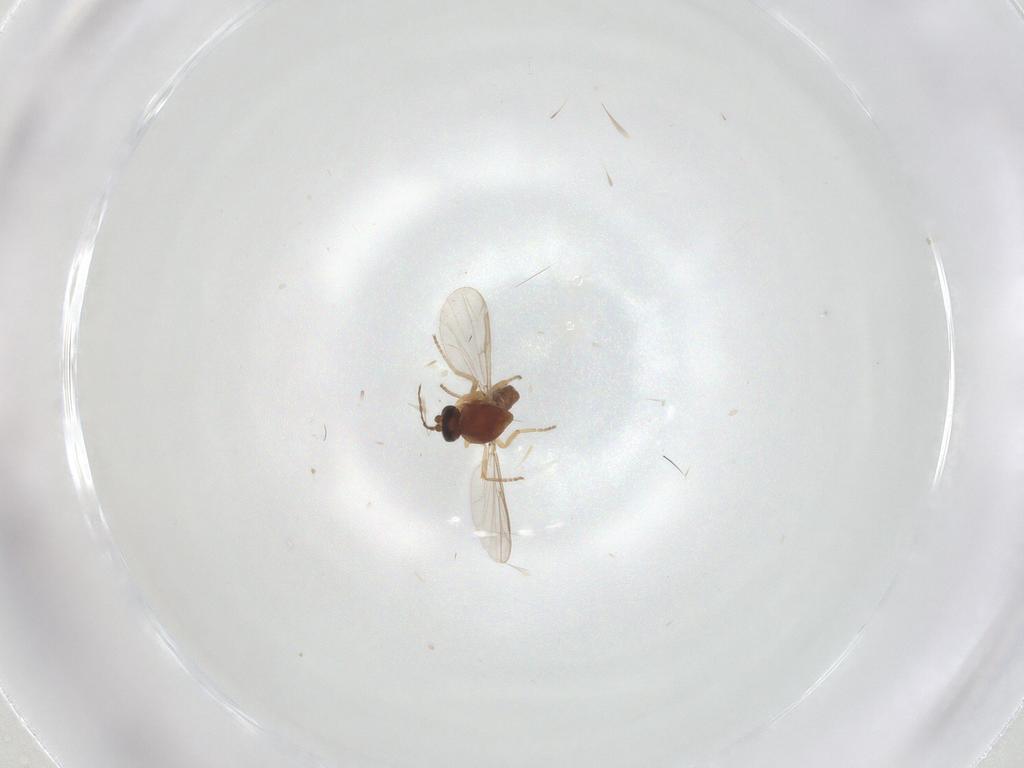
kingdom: Animalia
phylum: Arthropoda
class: Insecta
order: Diptera
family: Ceratopogonidae
